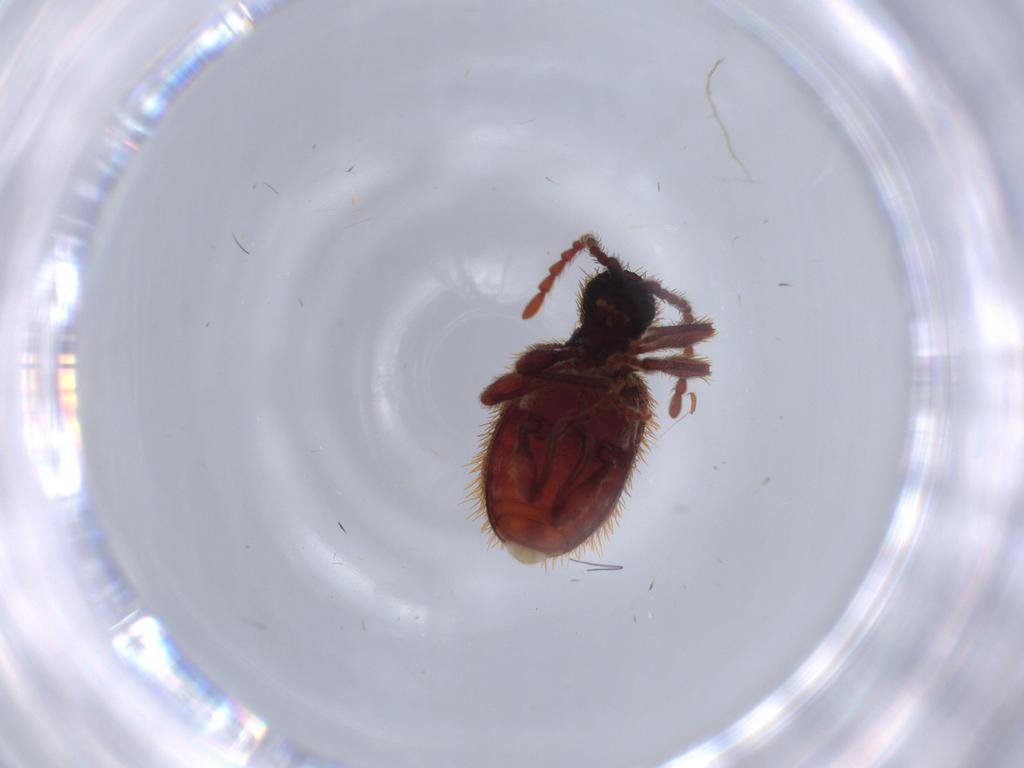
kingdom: Animalia
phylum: Arthropoda
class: Insecta
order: Coleoptera
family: Ptinidae
